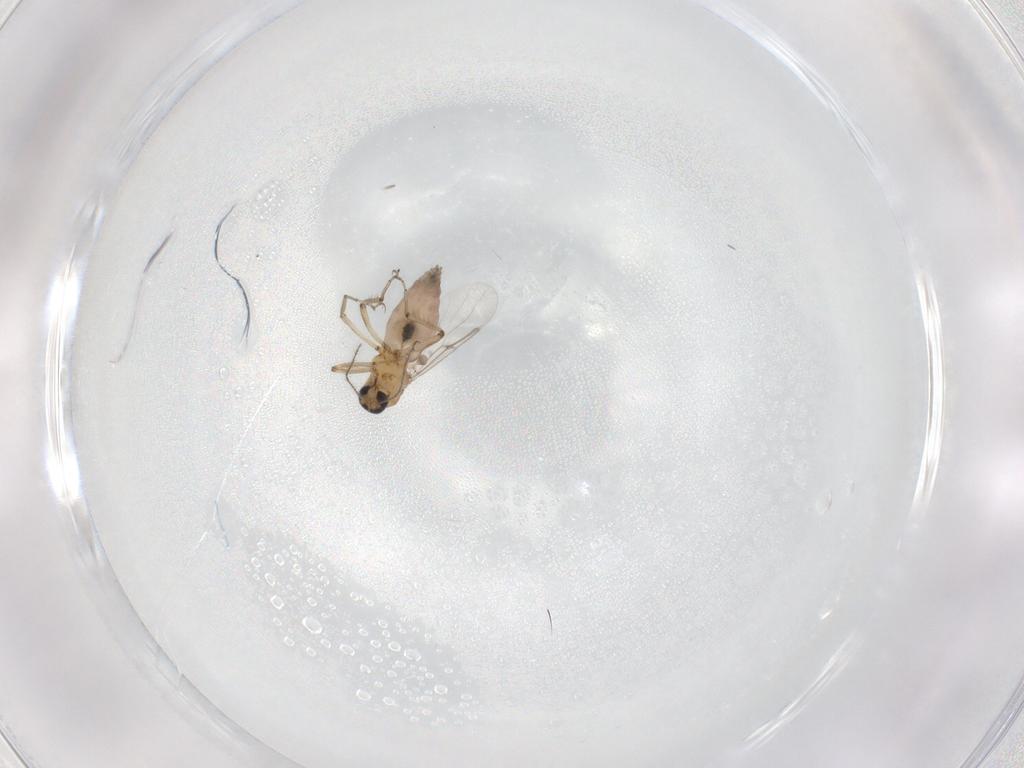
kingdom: Animalia
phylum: Arthropoda
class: Insecta
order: Diptera
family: Ceratopogonidae
